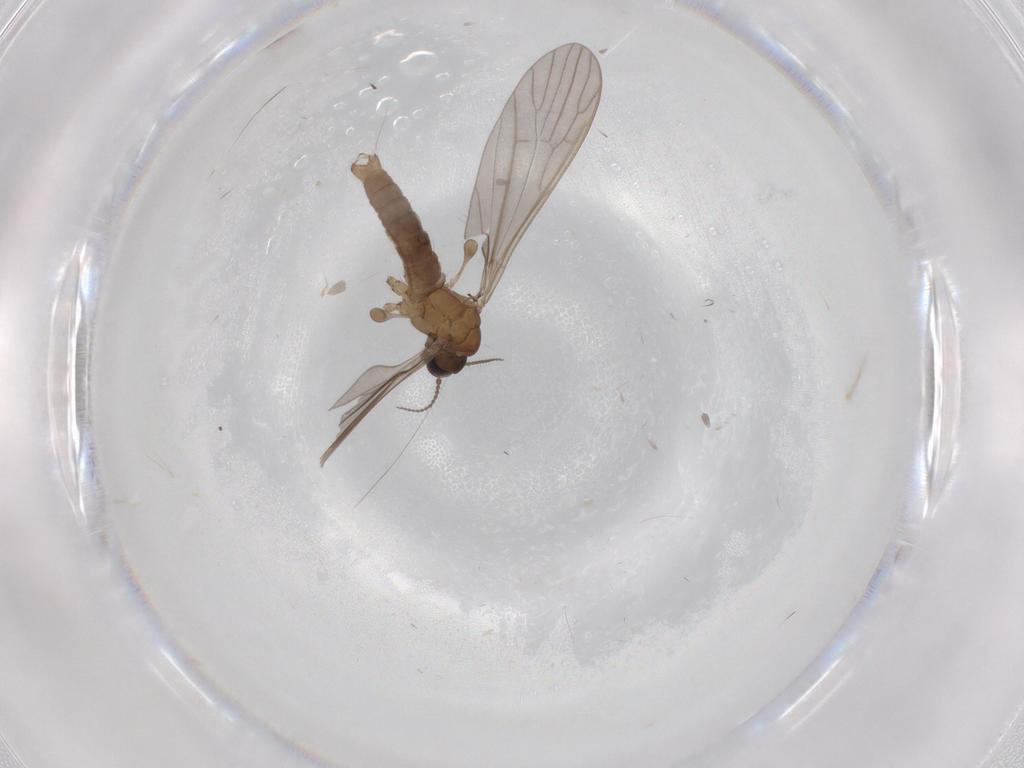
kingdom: Animalia
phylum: Arthropoda
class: Insecta
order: Diptera
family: Cecidomyiidae
